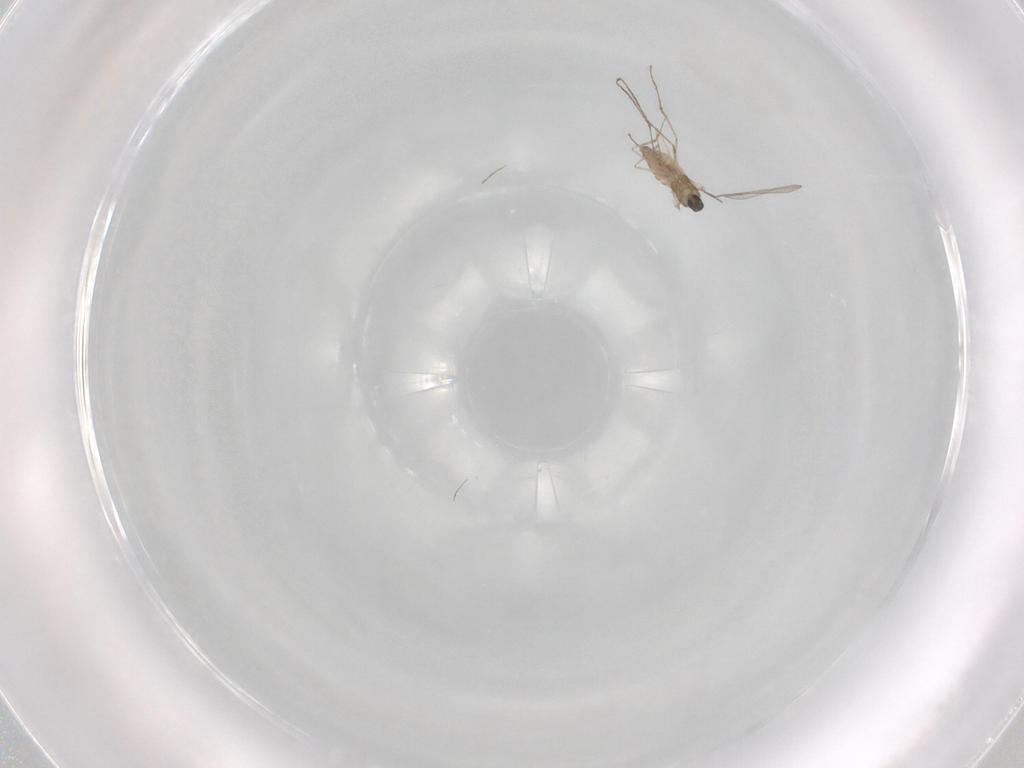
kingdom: Animalia
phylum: Arthropoda
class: Insecta
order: Diptera
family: Cecidomyiidae
